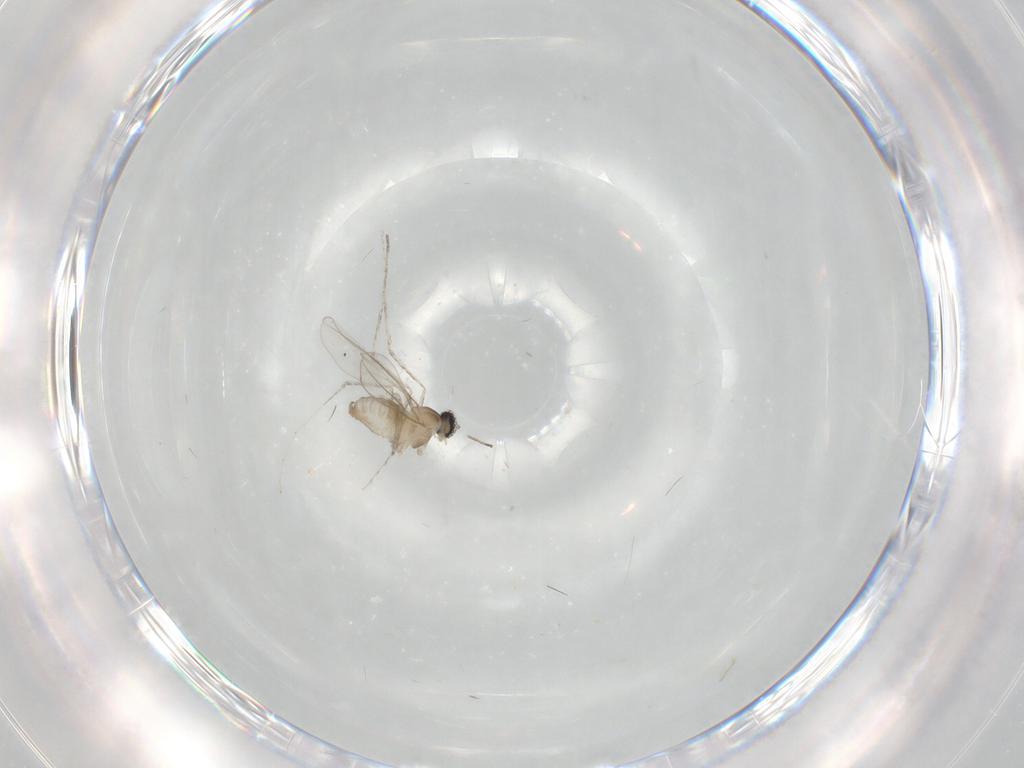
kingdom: Animalia
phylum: Arthropoda
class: Insecta
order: Diptera
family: Cecidomyiidae
